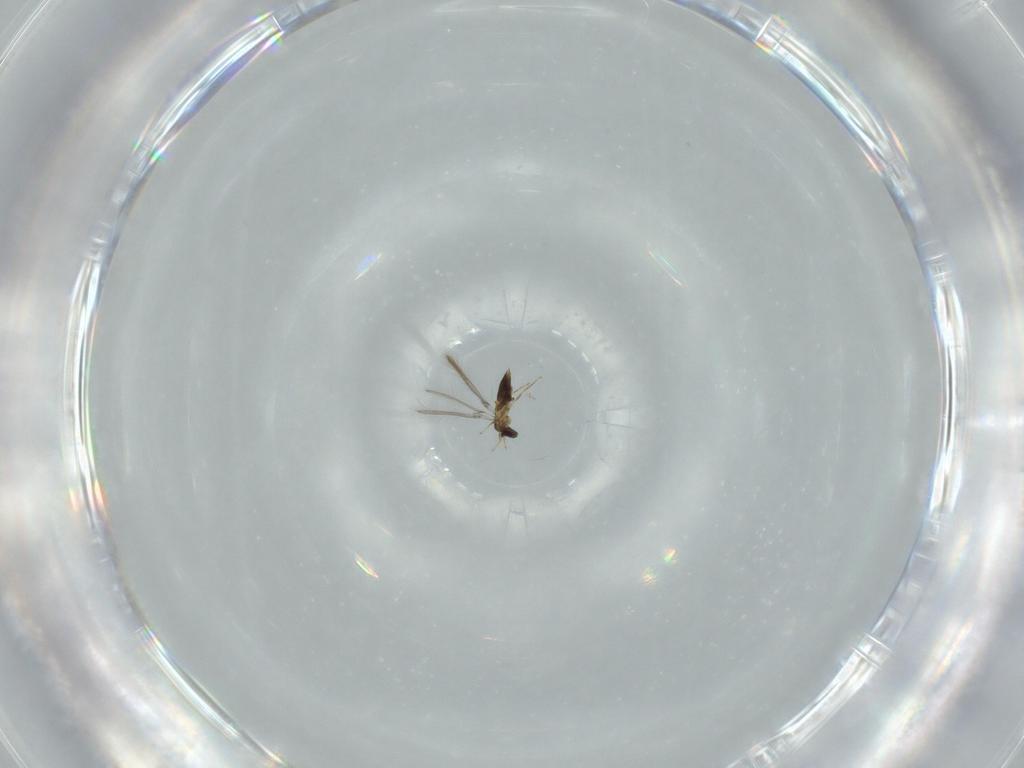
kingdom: Animalia
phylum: Arthropoda
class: Insecta
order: Hymenoptera
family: Mymaridae
